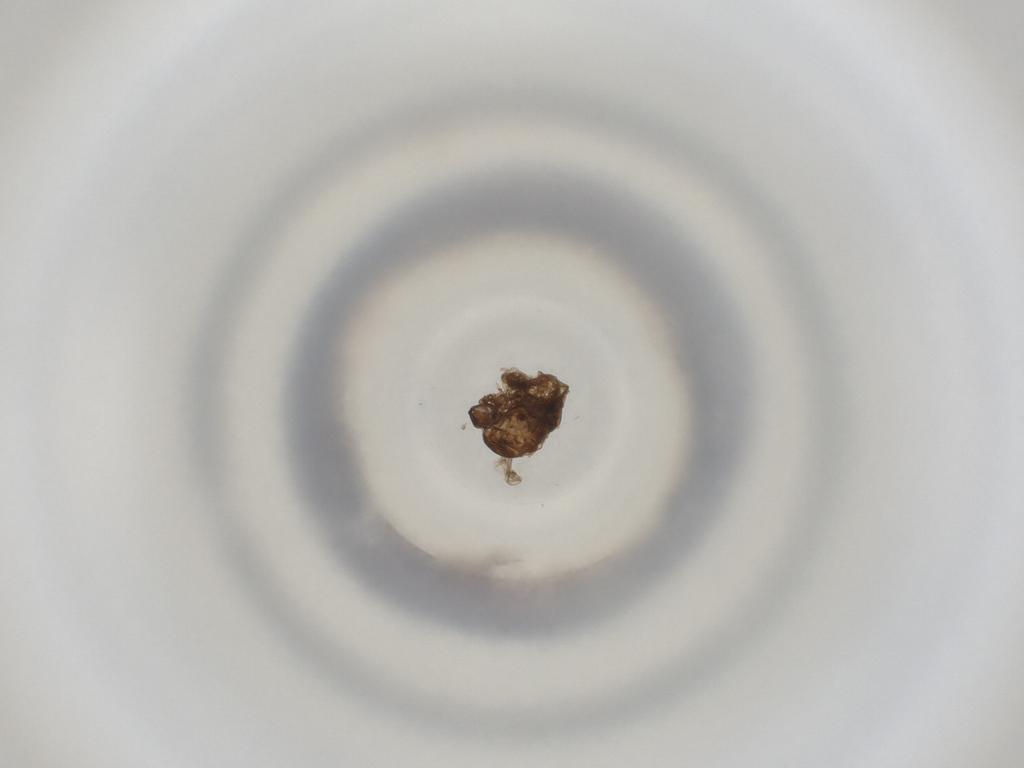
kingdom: Animalia
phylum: Arthropoda
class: Insecta
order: Diptera
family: Cecidomyiidae
